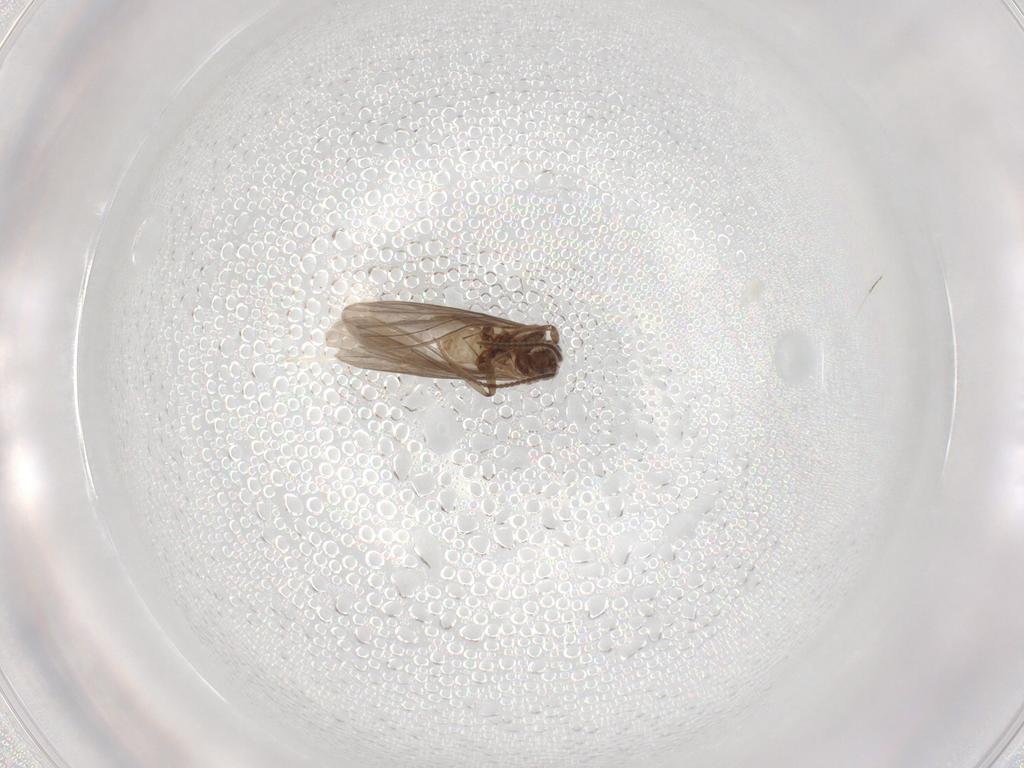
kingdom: Animalia
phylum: Arthropoda
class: Insecta
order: Neuroptera
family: Coniopterygidae
